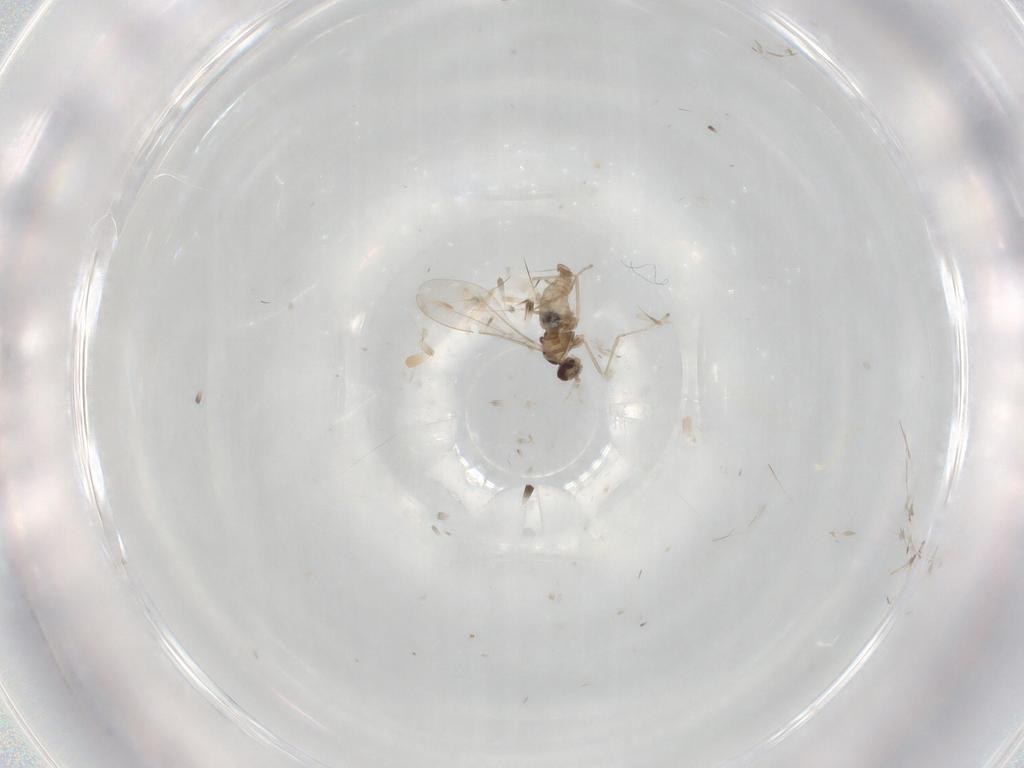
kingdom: Animalia
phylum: Arthropoda
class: Insecta
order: Diptera
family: Cecidomyiidae
